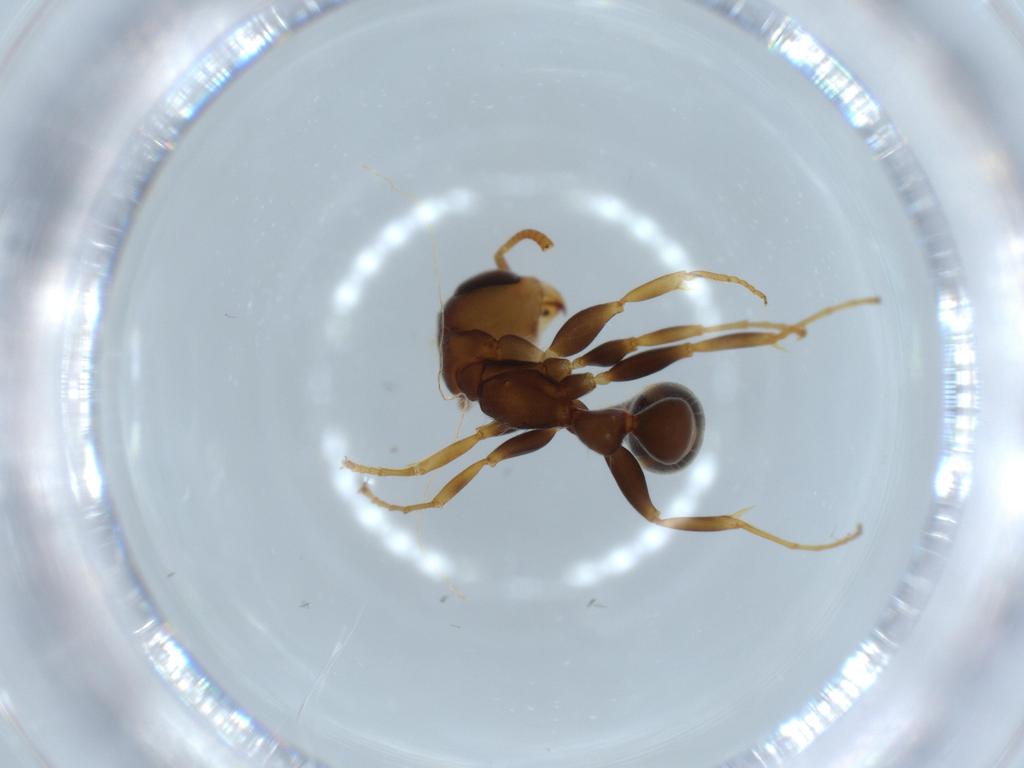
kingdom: Animalia
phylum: Arthropoda
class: Insecta
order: Hymenoptera
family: Formicidae
